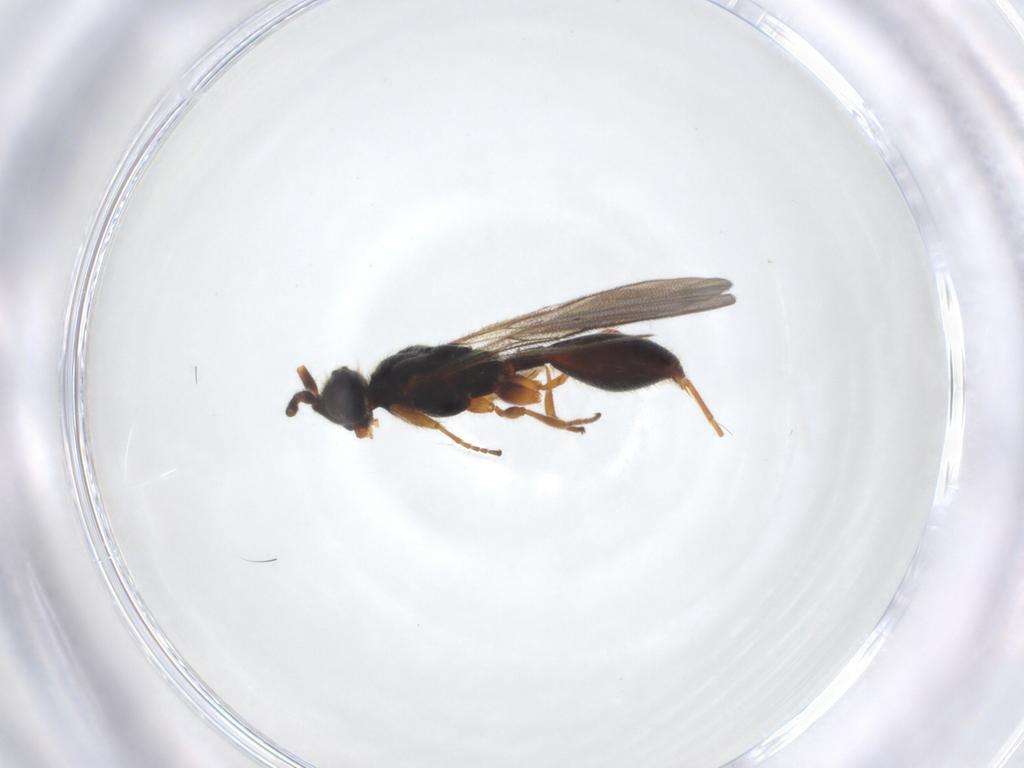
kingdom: Animalia
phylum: Arthropoda
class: Insecta
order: Hymenoptera
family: Diapriidae
